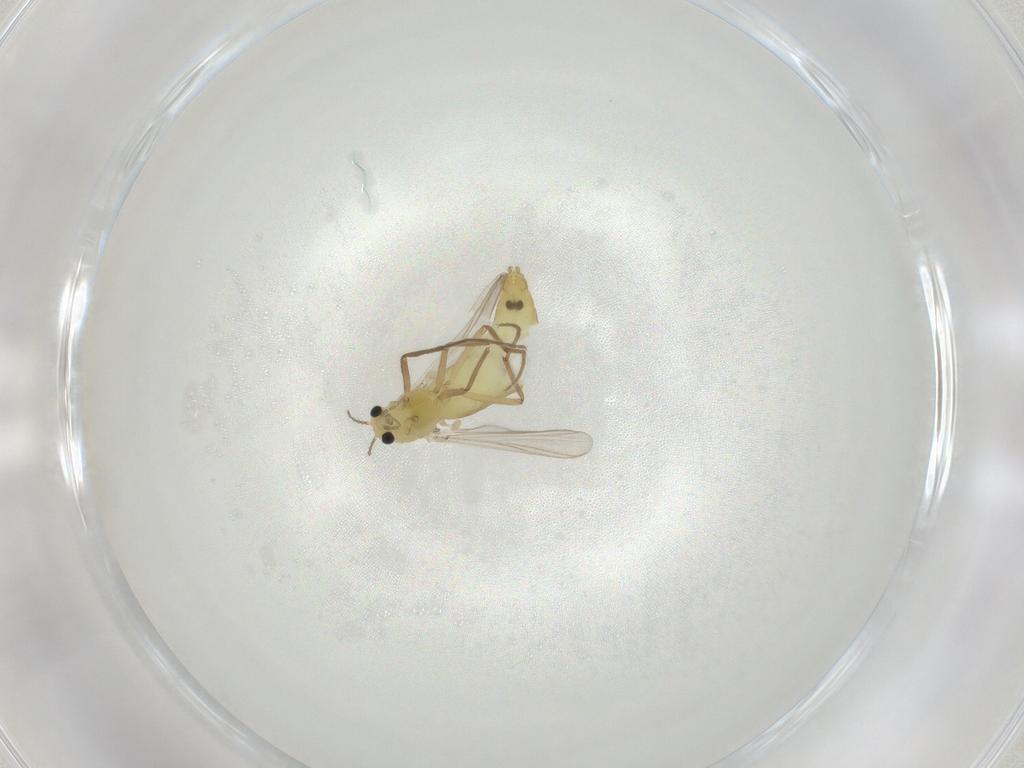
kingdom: Animalia
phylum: Arthropoda
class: Insecta
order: Diptera
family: Chironomidae
